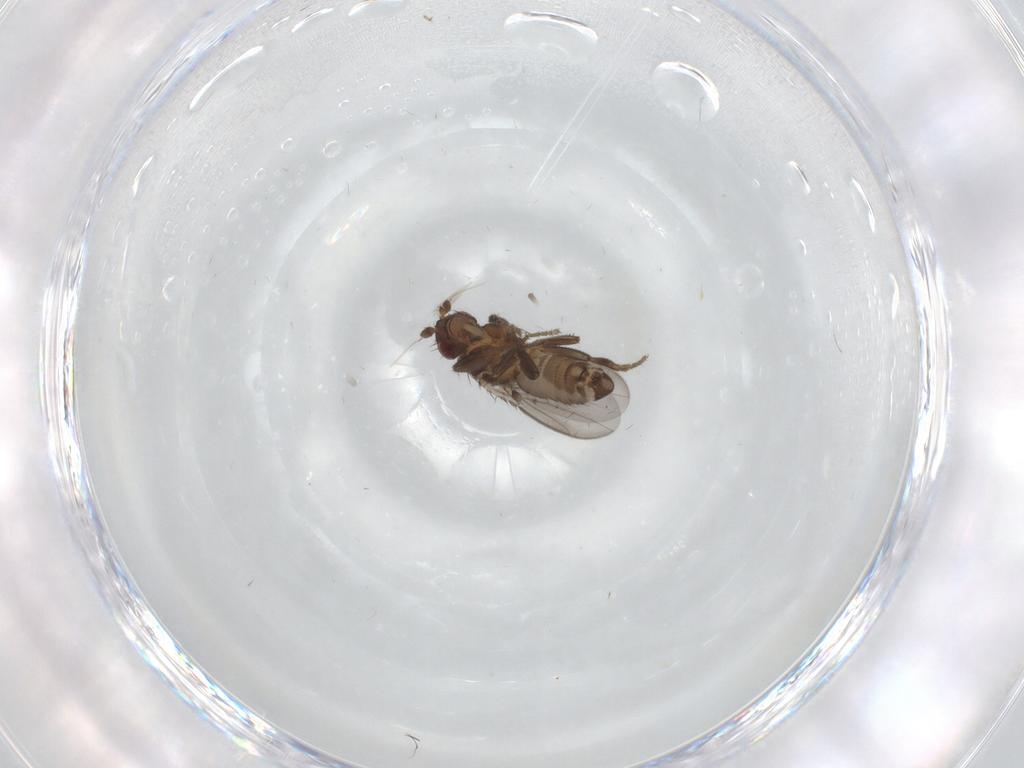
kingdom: Animalia
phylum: Arthropoda
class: Insecta
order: Diptera
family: Sphaeroceridae
